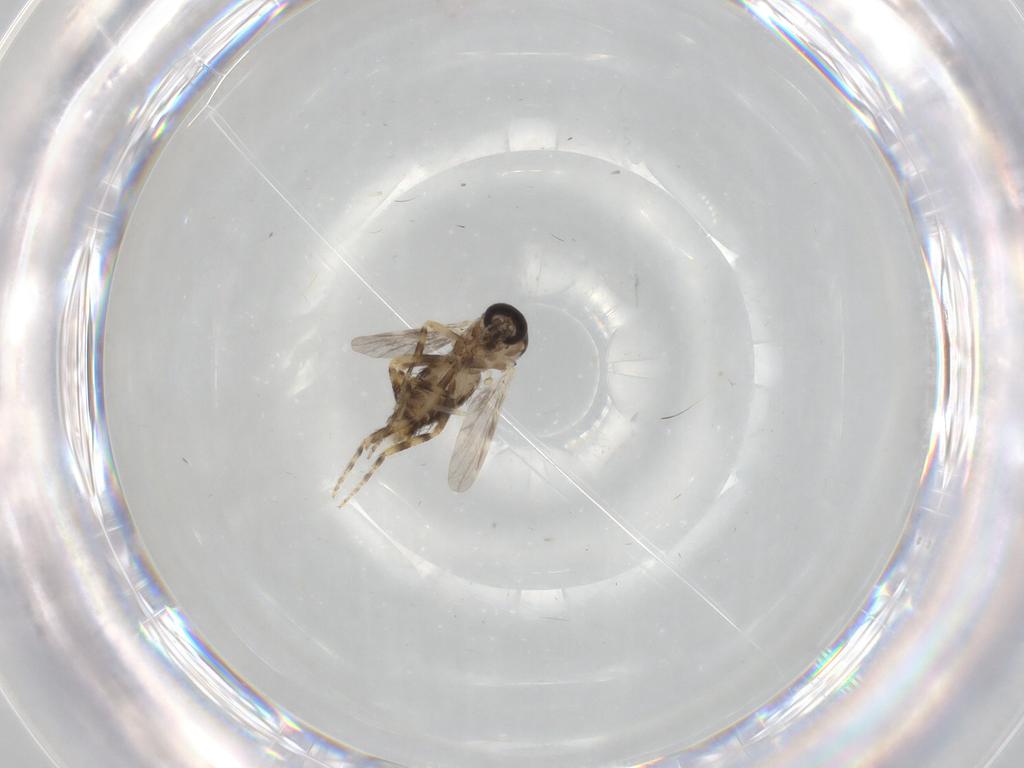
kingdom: Animalia
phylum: Arthropoda
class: Insecta
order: Diptera
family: Ceratopogonidae
